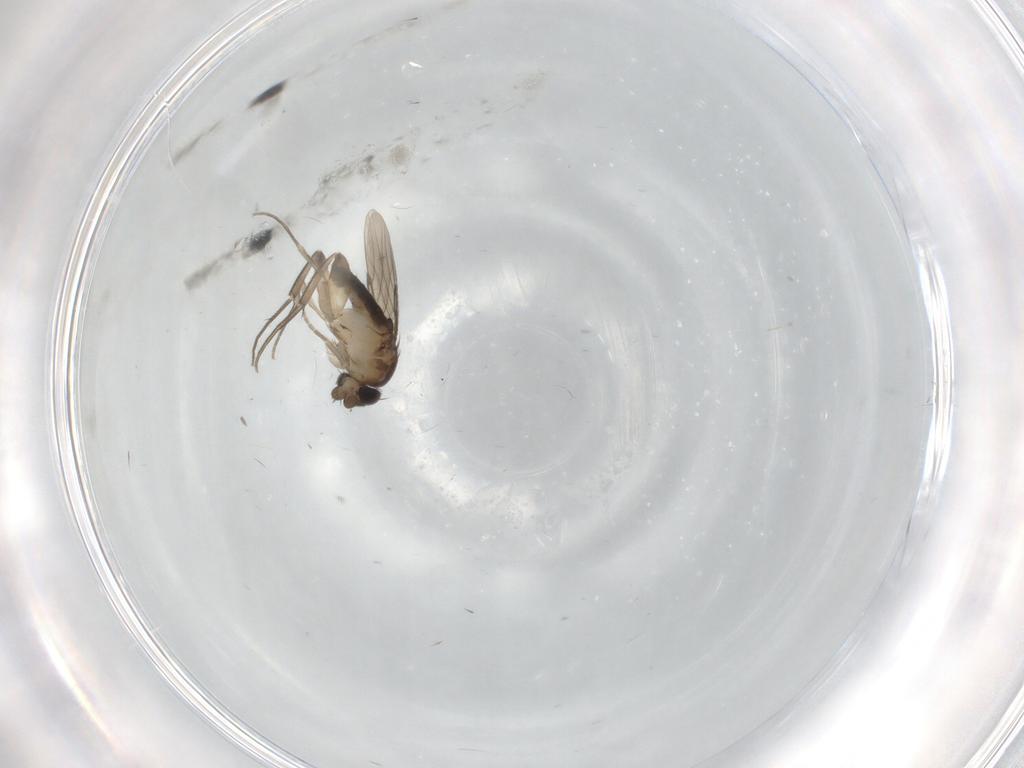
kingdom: Animalia
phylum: Arthropoda
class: Insecta
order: Diptera
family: Phoridae
